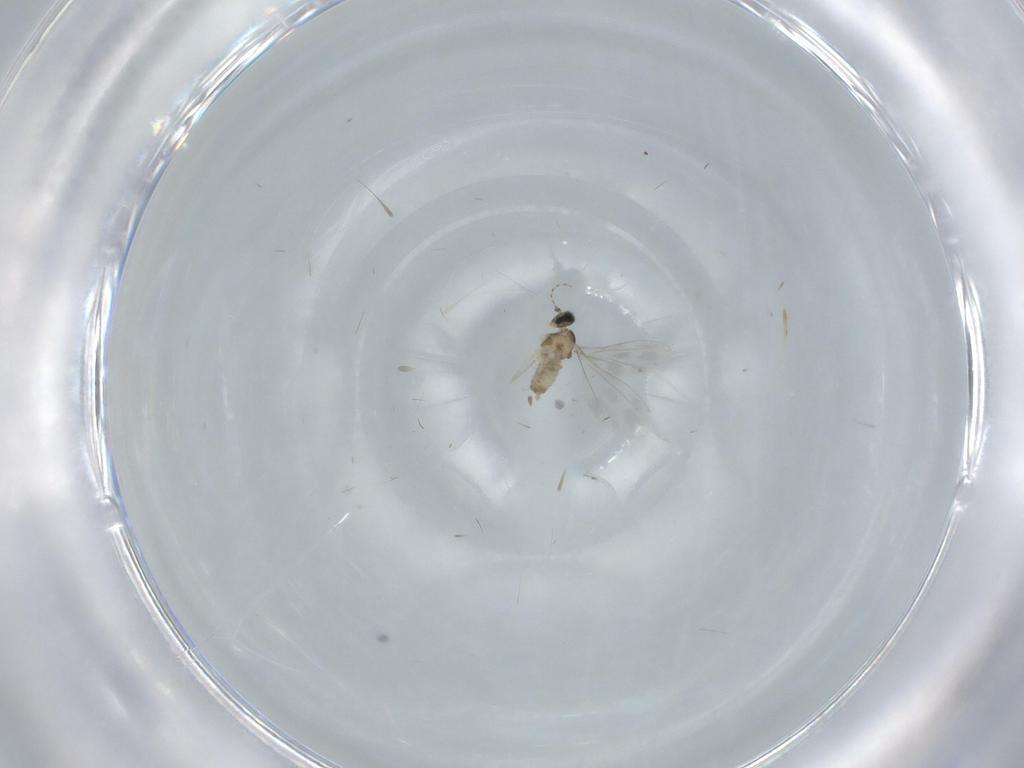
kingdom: Animalia
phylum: Arthropoda
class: Insecta
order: Diptera
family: Cecidomyiidae
